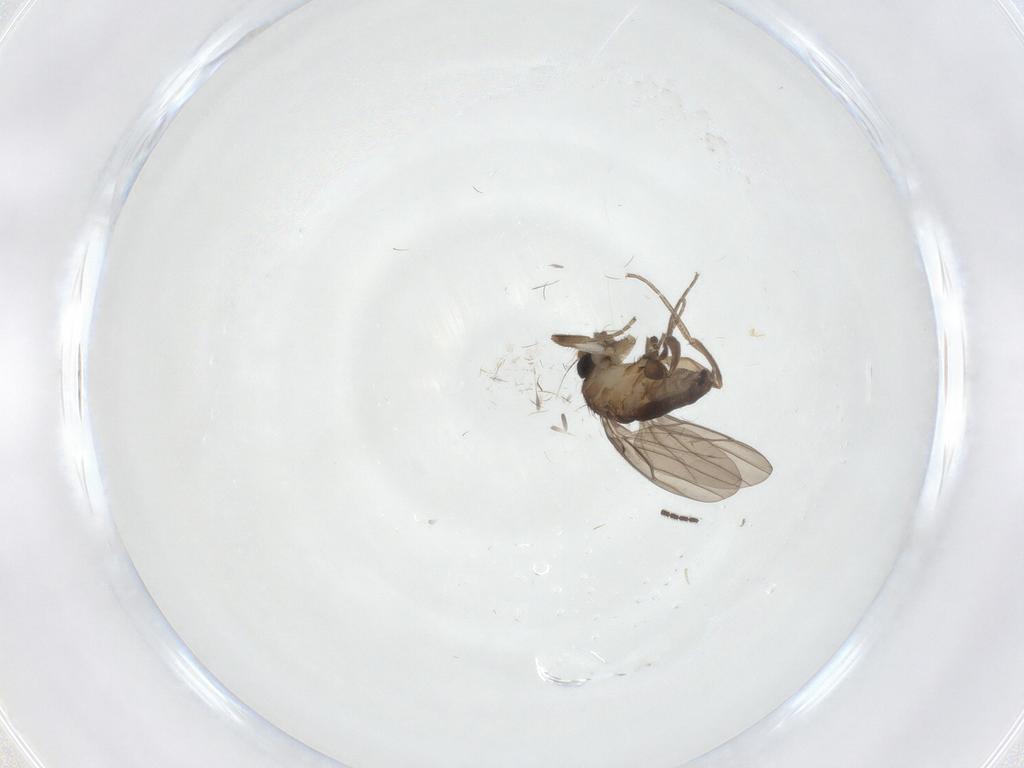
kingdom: Animalia
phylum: Arthropoda
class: Insecta
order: Diptera
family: Cecidomyiidae
